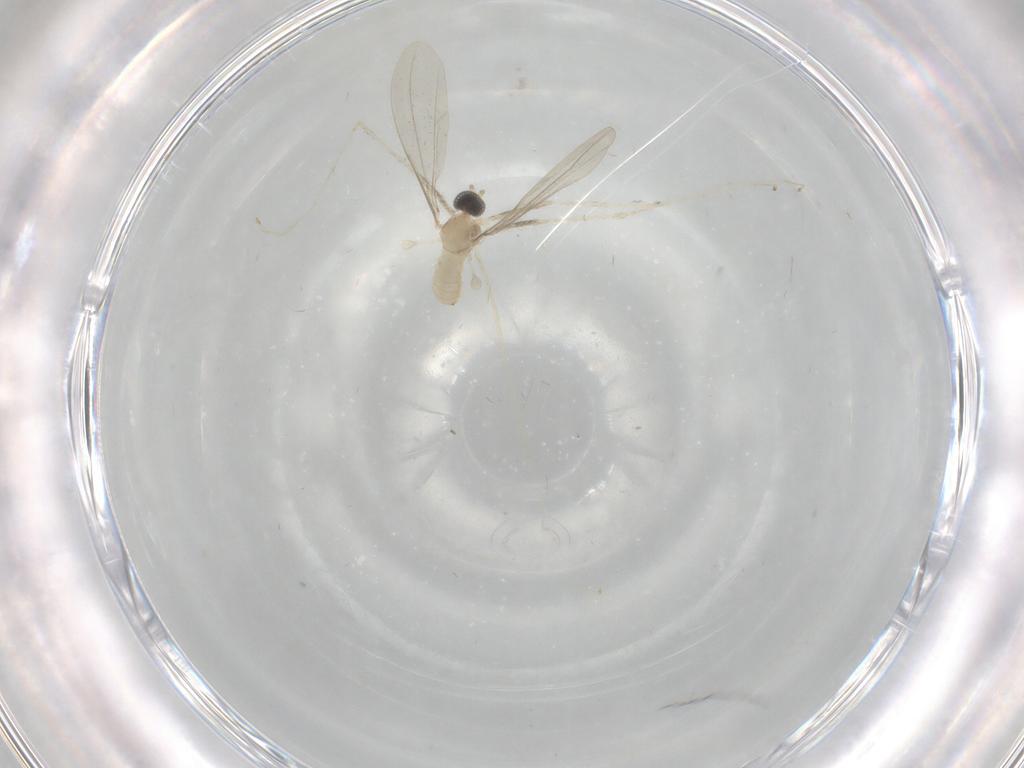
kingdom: Animalia
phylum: Arthropoda
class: Insecta
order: Diptera
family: Cecidomyiidae
